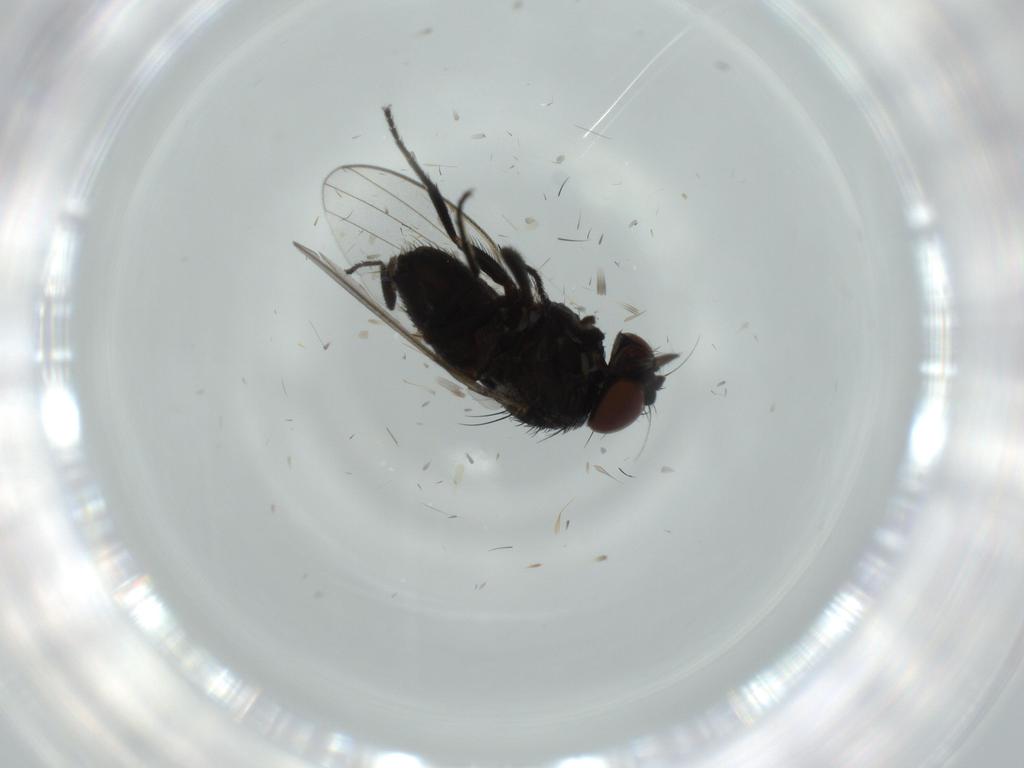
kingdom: Animalia
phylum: Arthropoda
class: Insecta
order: Diptera
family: Milichiidae
